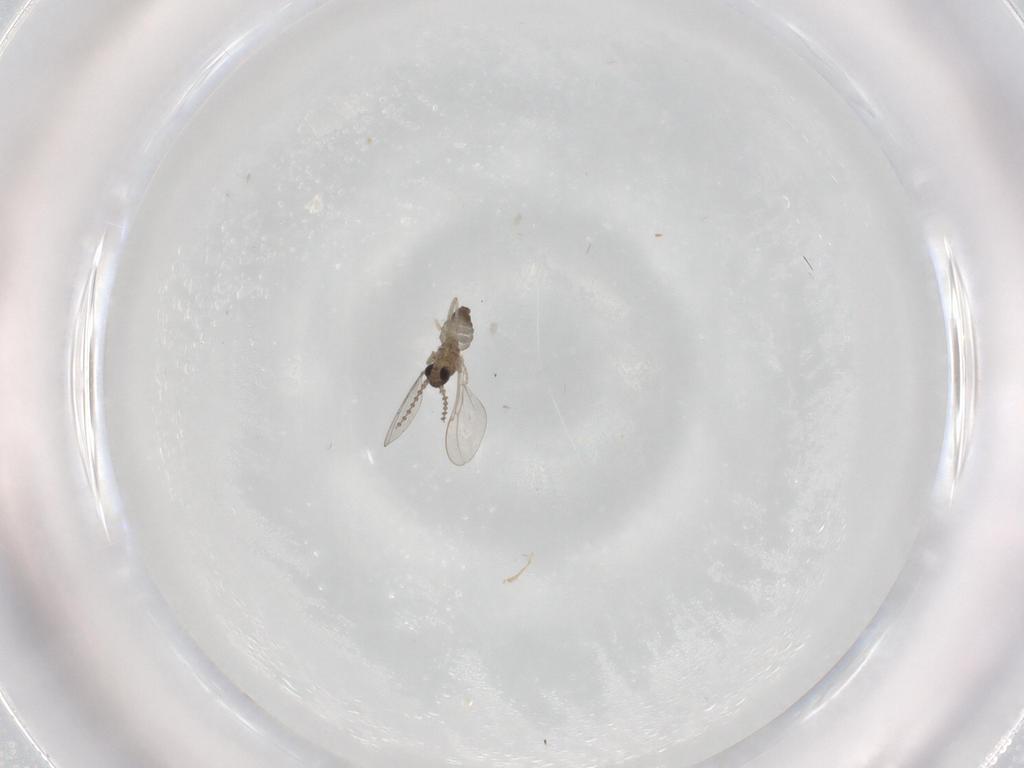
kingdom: Animalia
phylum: Arthropoda
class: Insecta
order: Diptera
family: Cecidomyiidae
